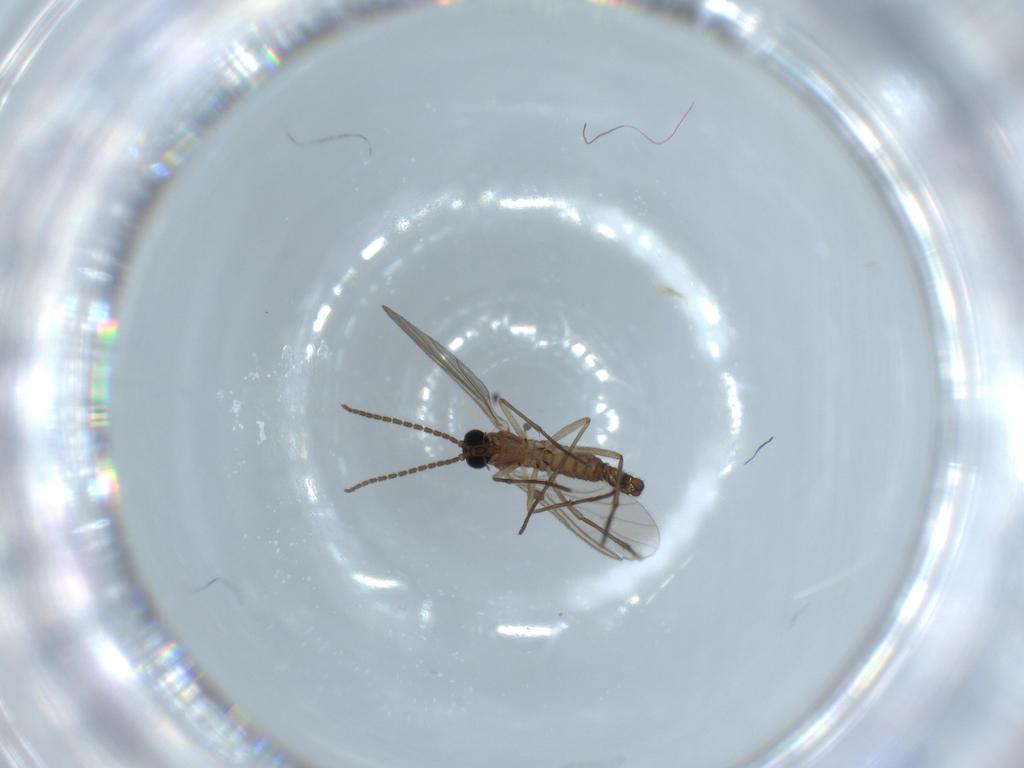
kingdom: Animalia
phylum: Arthropoda
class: Insecta
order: Diptera
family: Sciaridae
